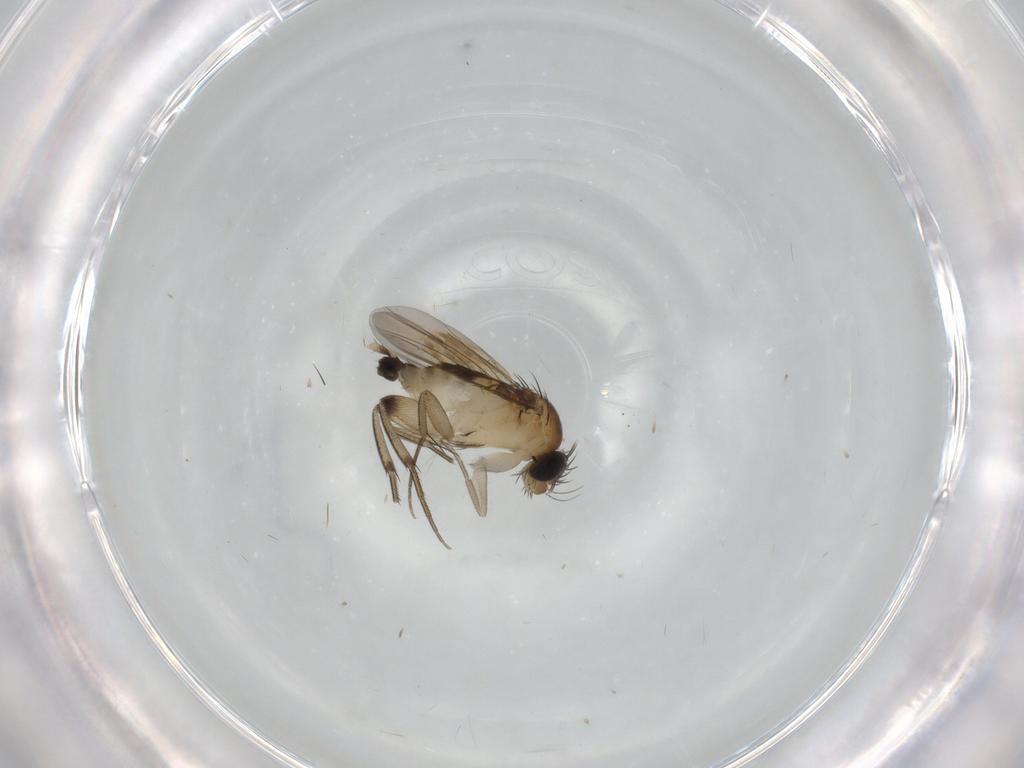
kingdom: Animalia
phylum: Arthropoda
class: Insecta
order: Diptera
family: Phoridae
